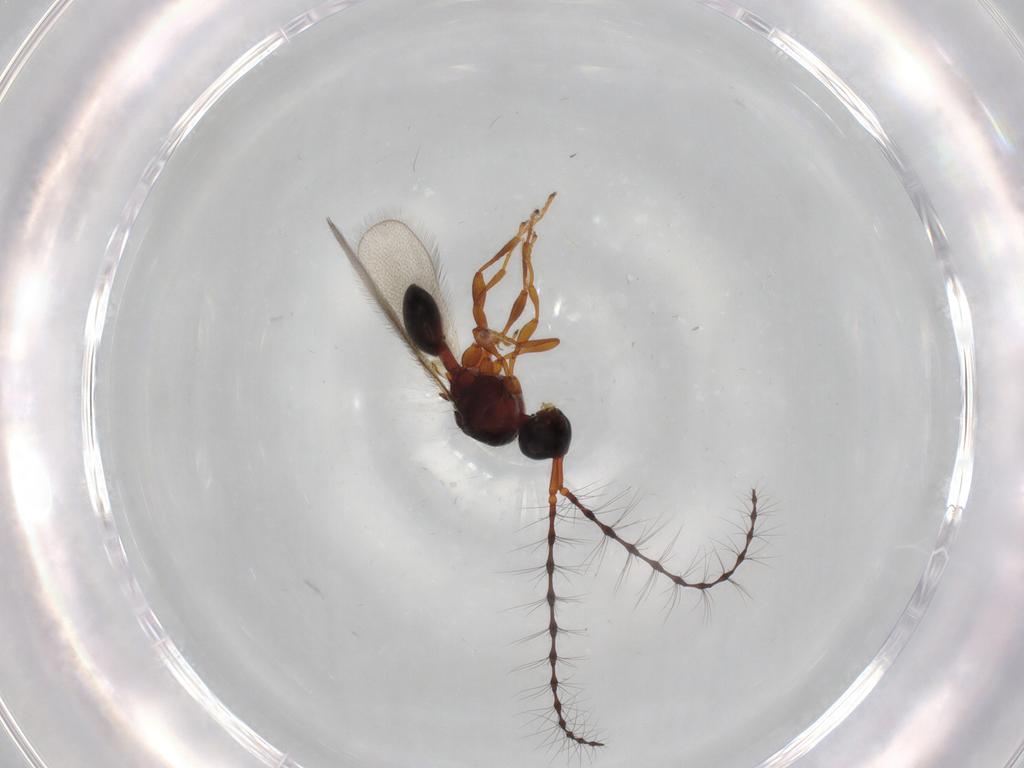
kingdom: Animalia
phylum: Arthropoda
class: Insecta
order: Hymenoptera
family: Diapriidae
